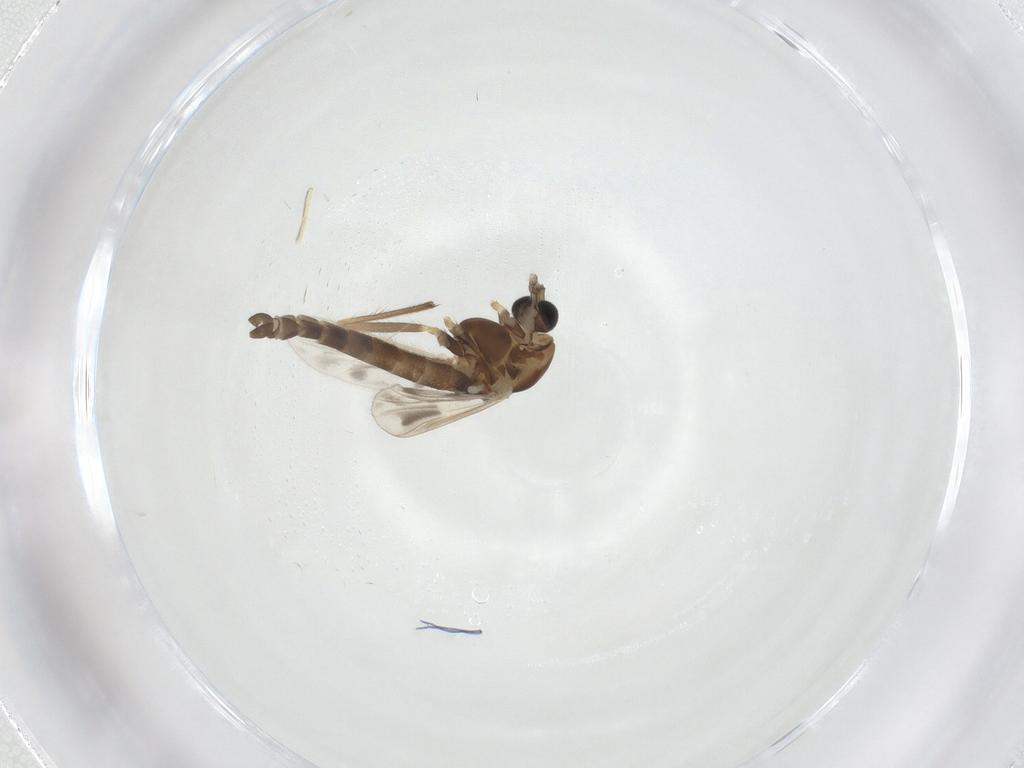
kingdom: Animalia
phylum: Arthropoda
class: Insecta
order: Diptera
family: Chironomidae
